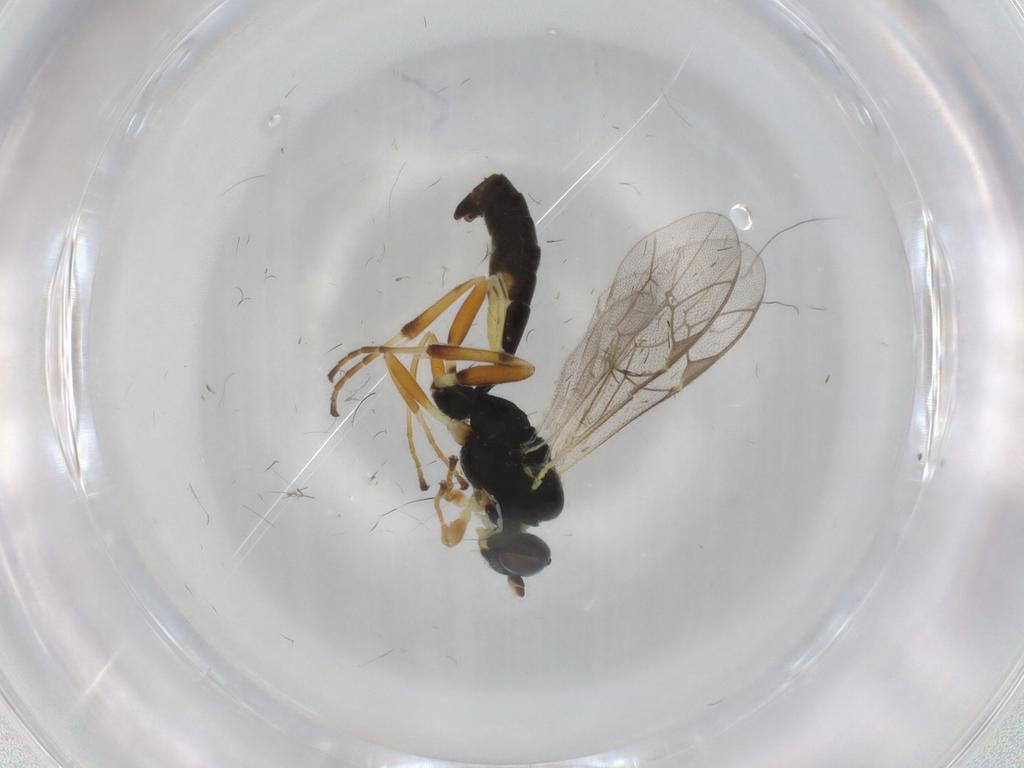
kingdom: Animalia
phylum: Arthropoda
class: Insecta
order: Hymenoptera
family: Ichneumonidae
